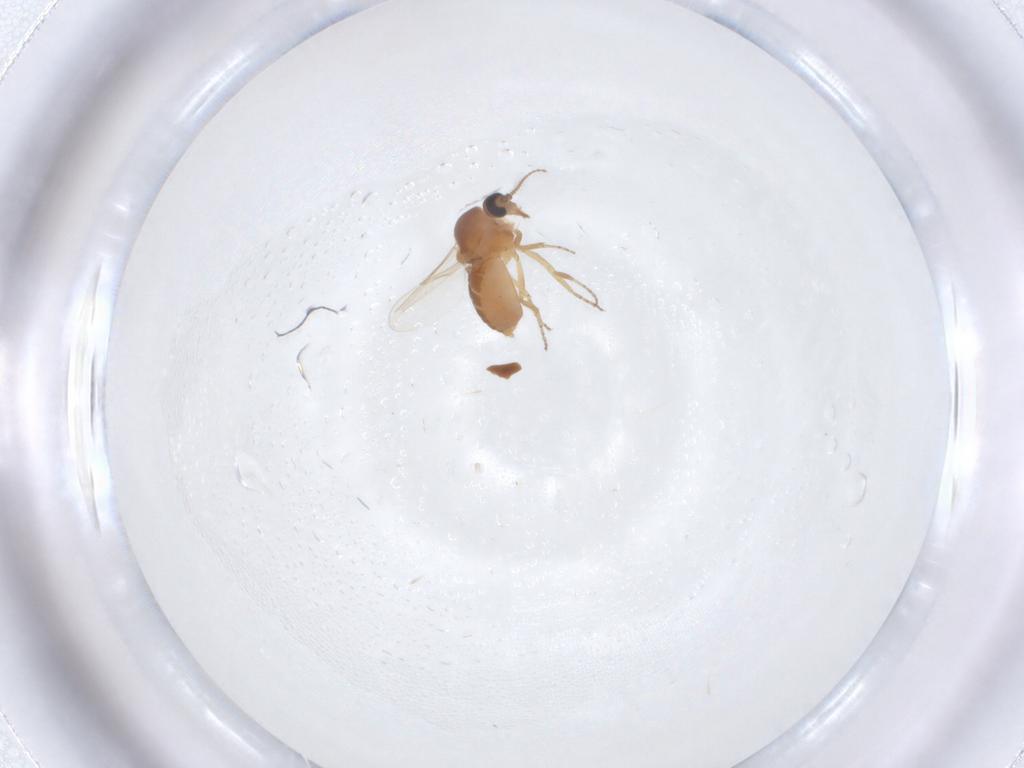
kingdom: Animalia
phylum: Arthropoda
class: Insecta
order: Diptera
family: Ceratopogonidae
